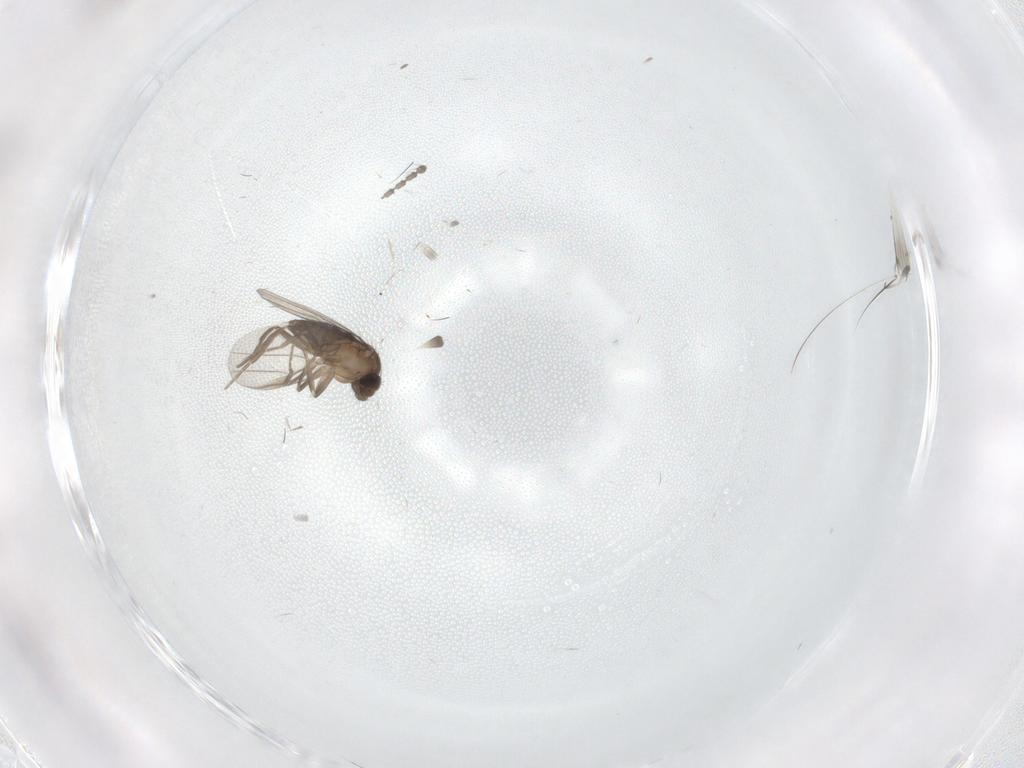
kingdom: Animalia
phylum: Arthropoda
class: Insecta
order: Diptera
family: Cecidomyiidae
